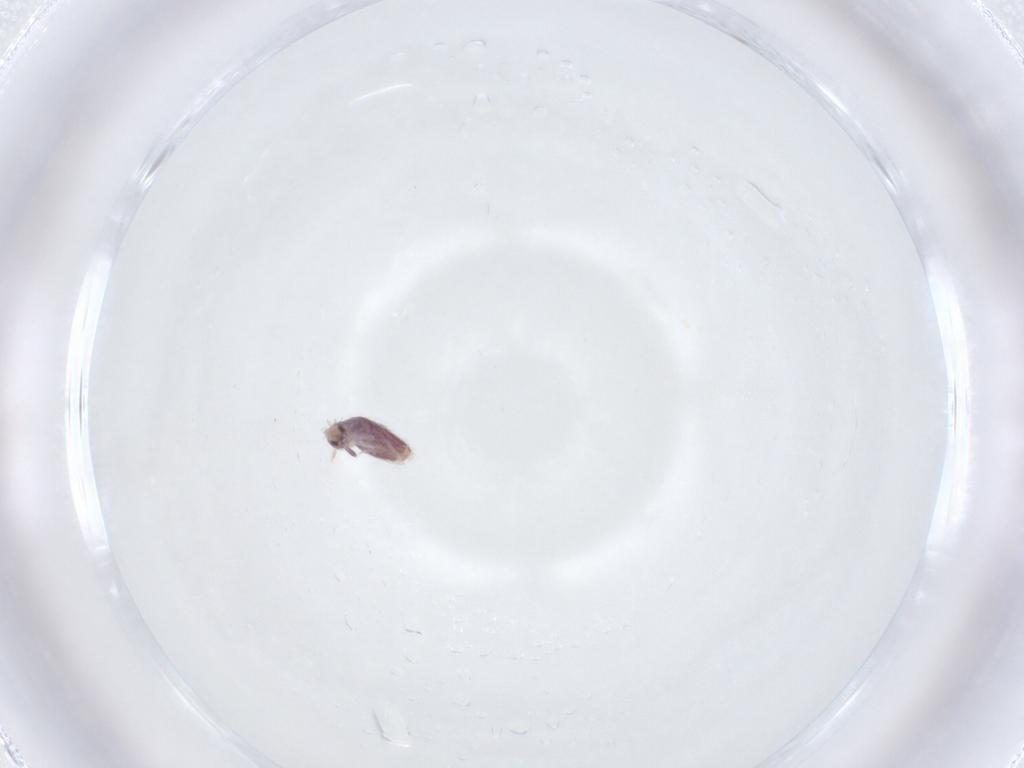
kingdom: Animalia
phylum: Arthropoda
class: Collembola
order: Entomobryomorpha
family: Entomobryidae
